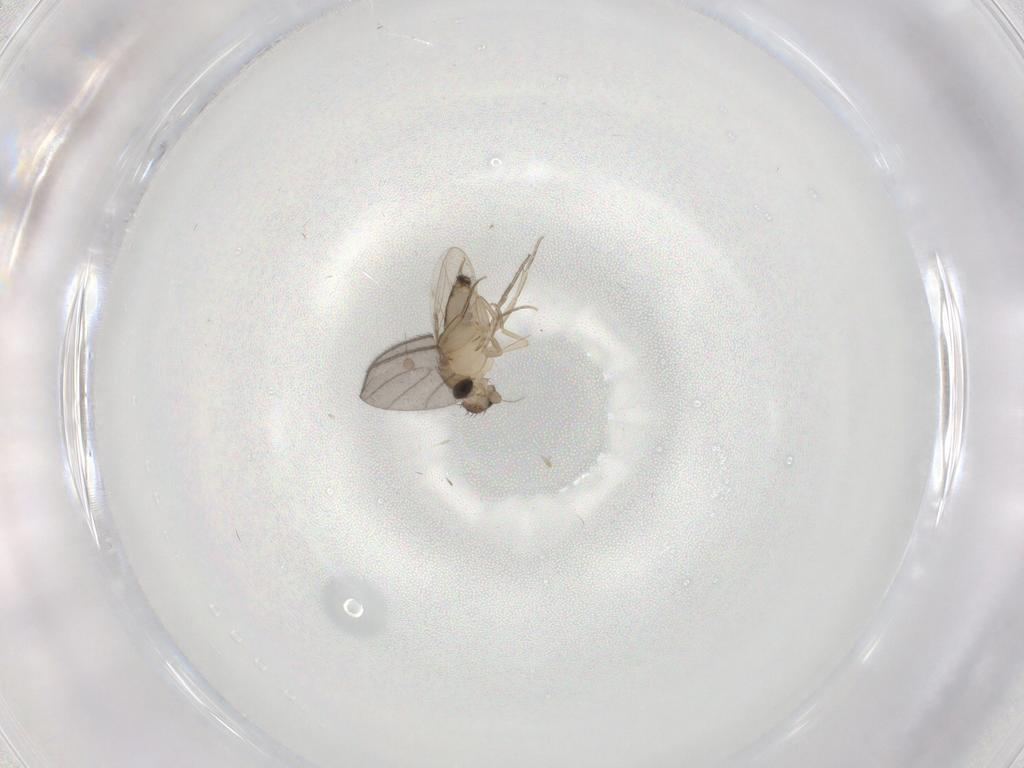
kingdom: Animalia
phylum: Arthropoda
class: Insecta
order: Diptera
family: Phoridae
